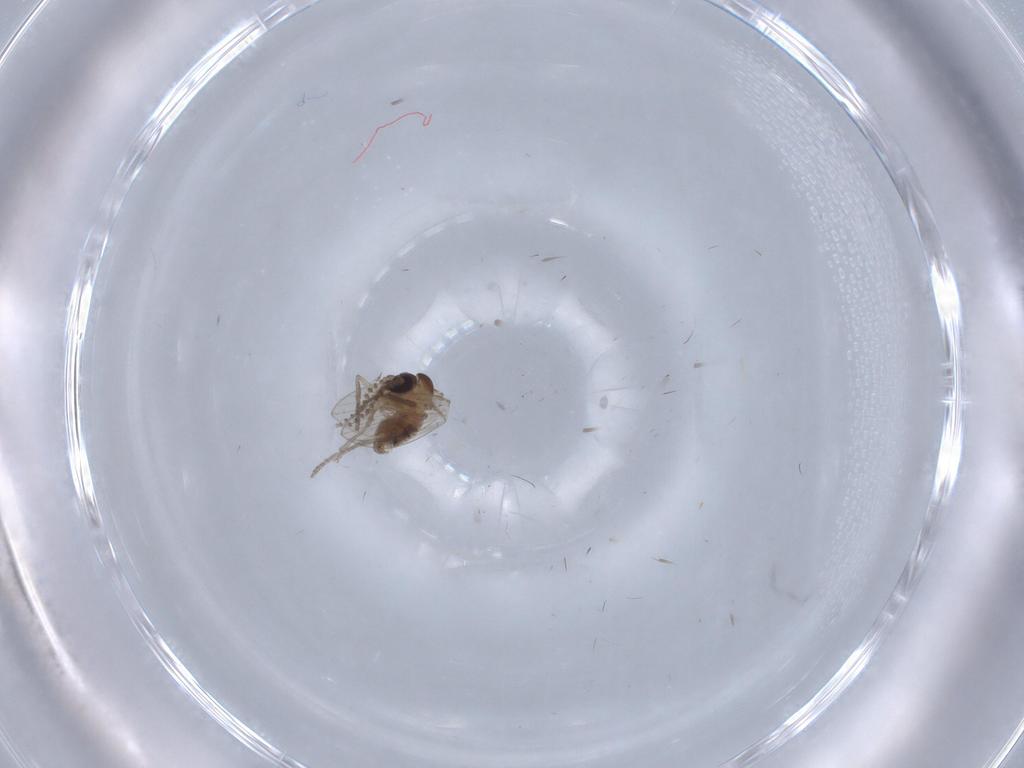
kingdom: Animalia
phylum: Arthropoda
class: Insecta
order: Diptera
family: Psychodidae
